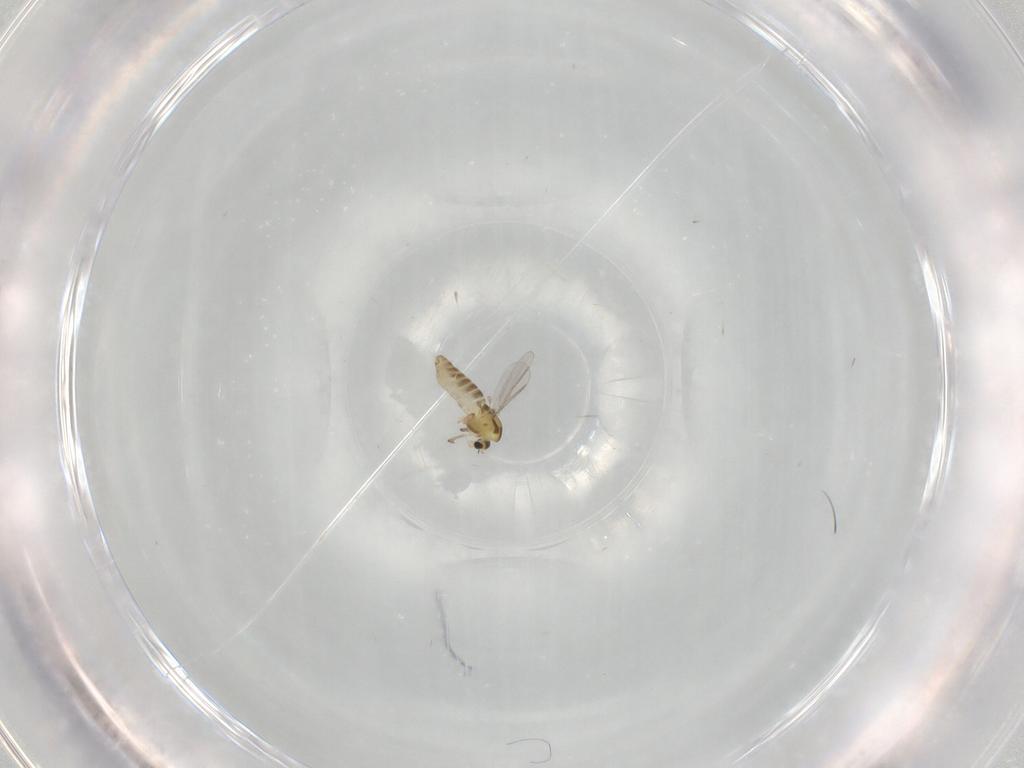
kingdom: Animalia
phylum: Arthropoda
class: Insecta
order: Diptera
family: Chironomidae
